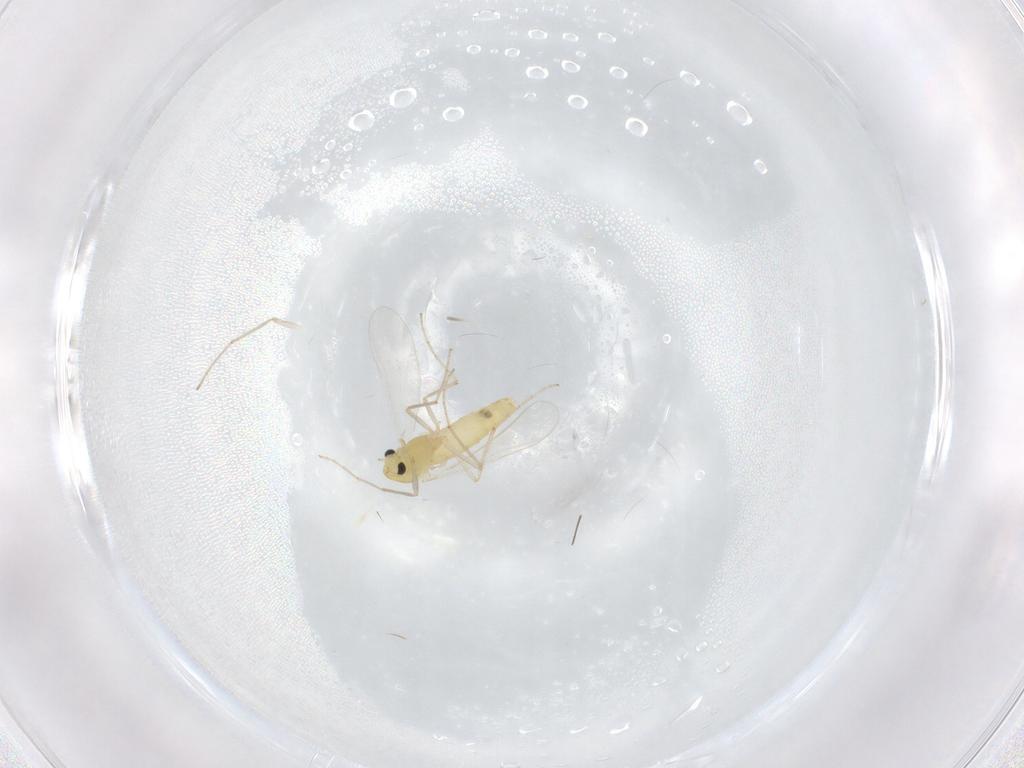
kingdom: Animalia
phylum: Arthropoda
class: Insecta
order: Diptera
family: Chironomidae
